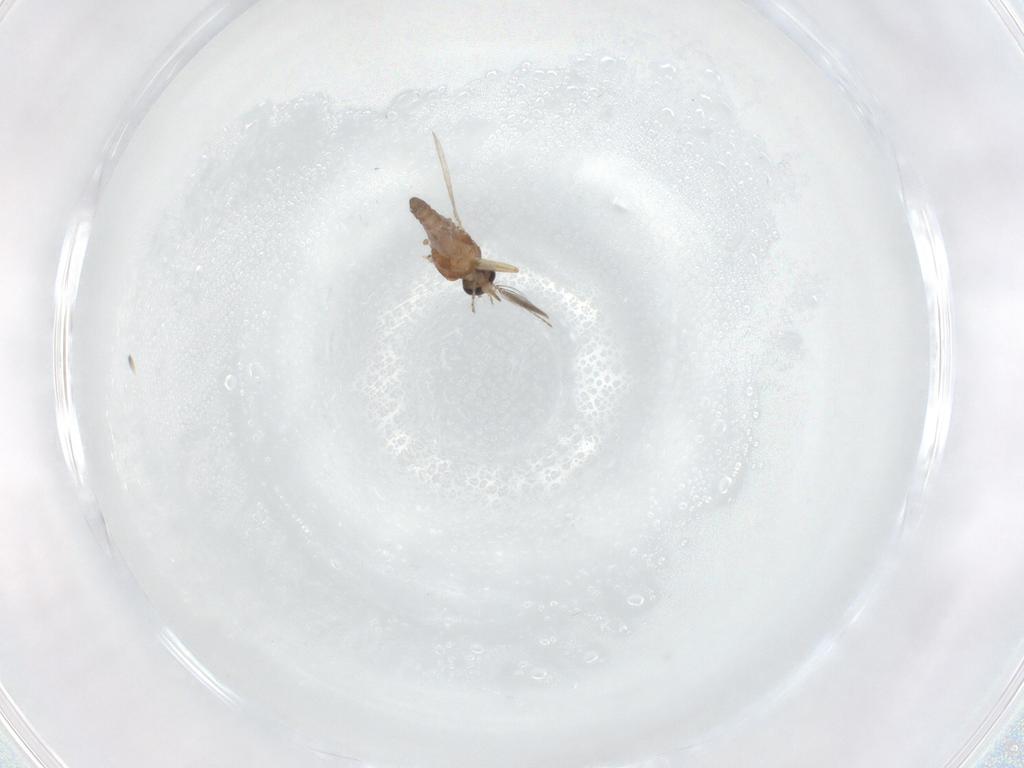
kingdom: Animalia
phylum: Arthropoda
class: Insecta
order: Diptera
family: Ceratopogonidae
